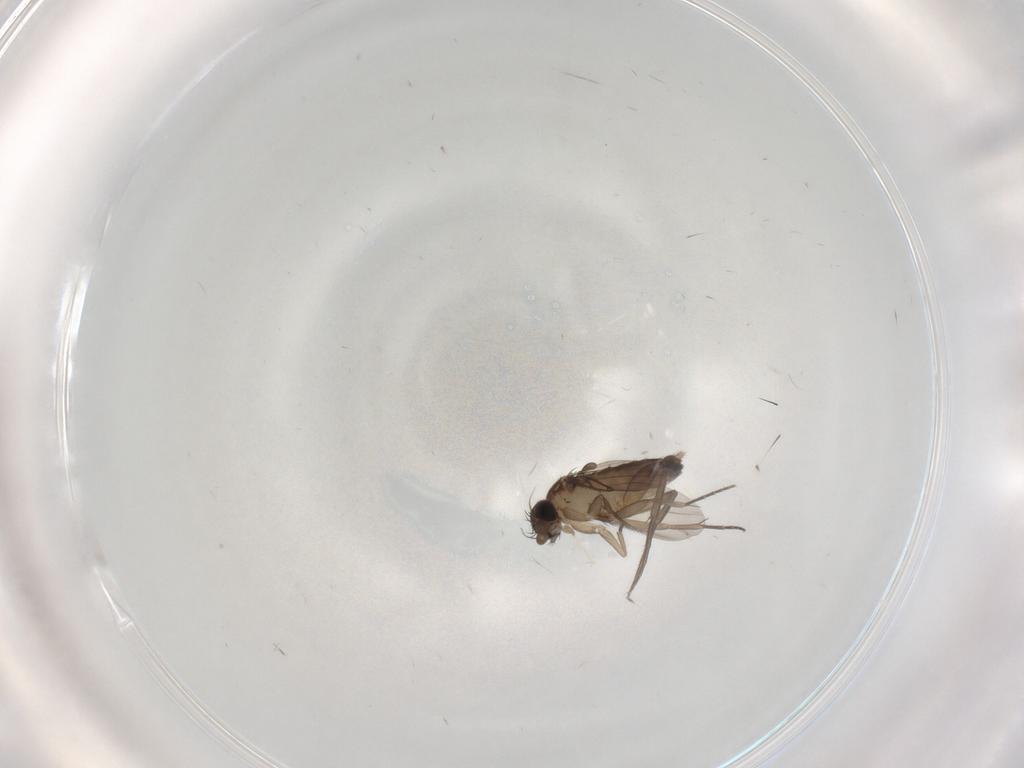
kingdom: Animalia
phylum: Arthropoda
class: Insecta
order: Diptera
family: Phoridae
